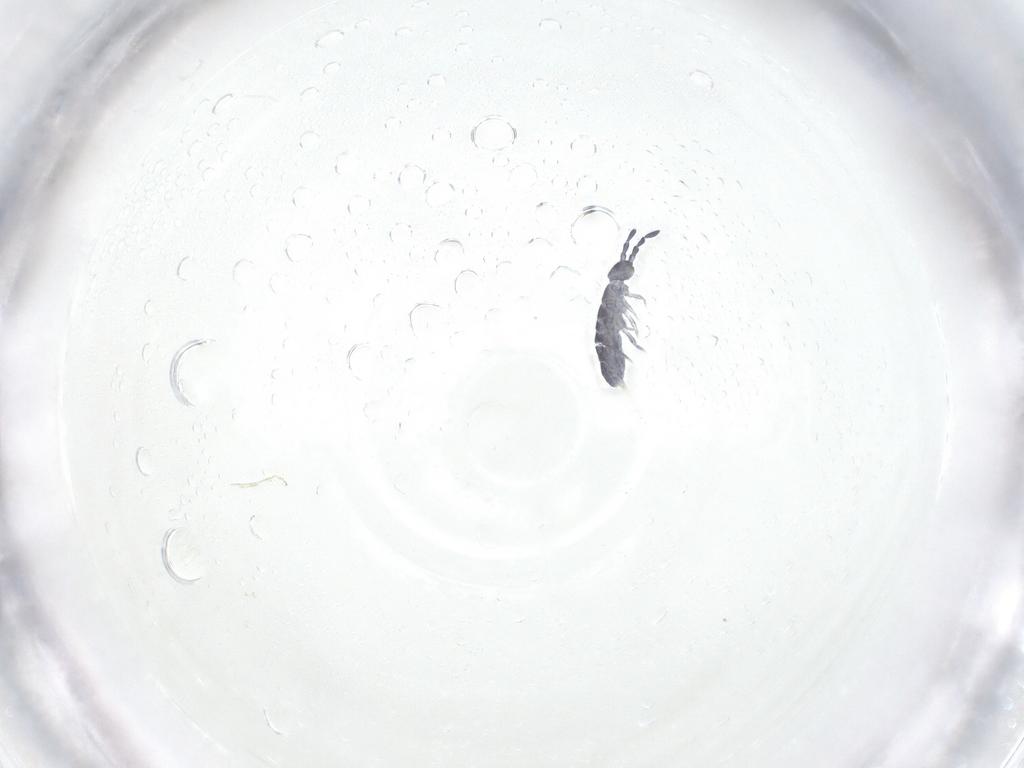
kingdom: Animalia
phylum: Arthropoda
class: Collembola
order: Entomobryomorpha
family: Isotomidae
